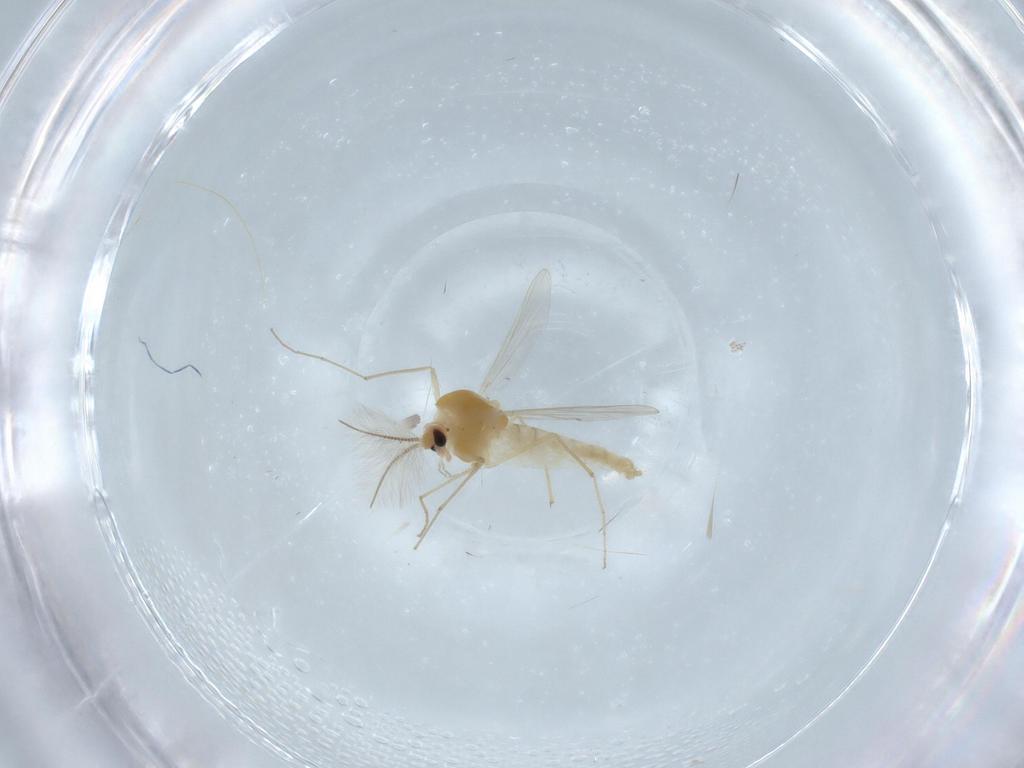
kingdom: Animalia
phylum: Arthropoda
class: Insecta
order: Diptera
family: Chironomidae
